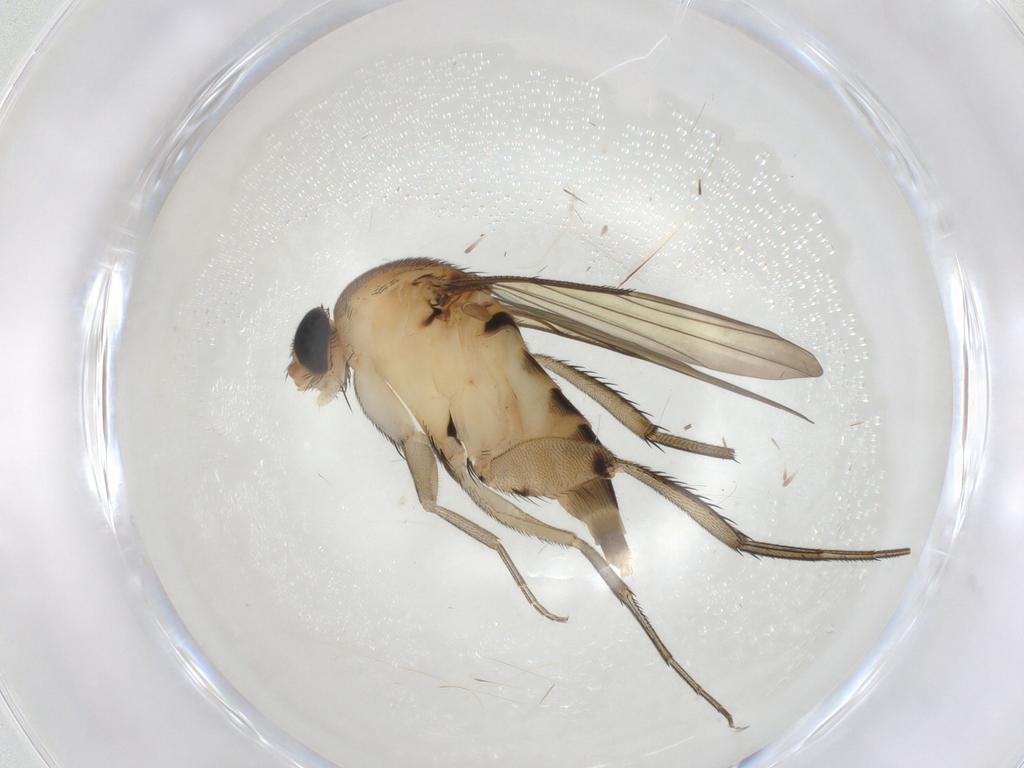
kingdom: Animalia
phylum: Arthropoda
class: Insecta
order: Diptera
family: Phoridae
